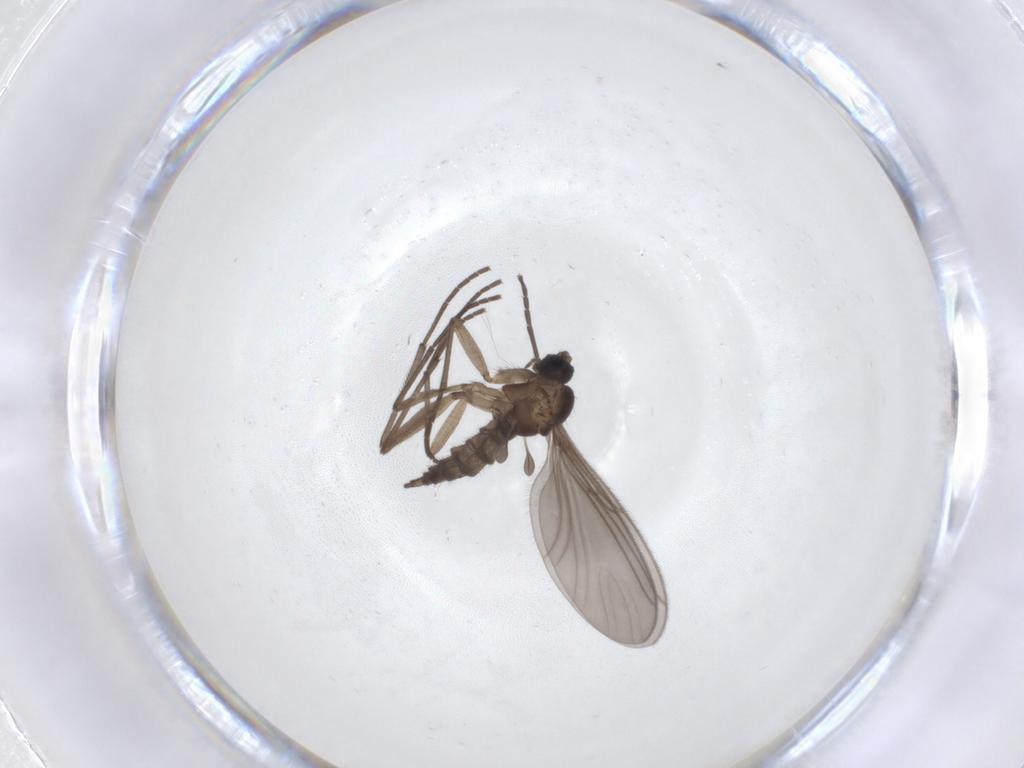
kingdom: Animalia
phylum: Arthropoda
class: Insecta
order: Diptera
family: Sciaridae
